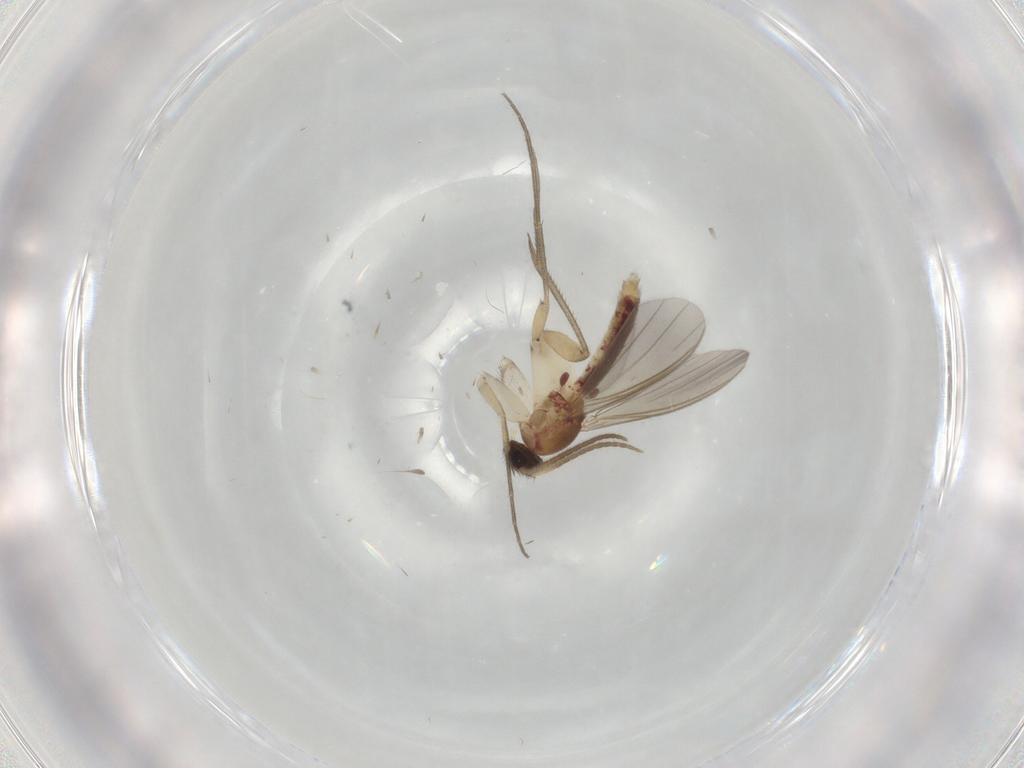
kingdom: Animalia
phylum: Arthropoda
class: Insecta
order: Diptera
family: Mycetophilidae
